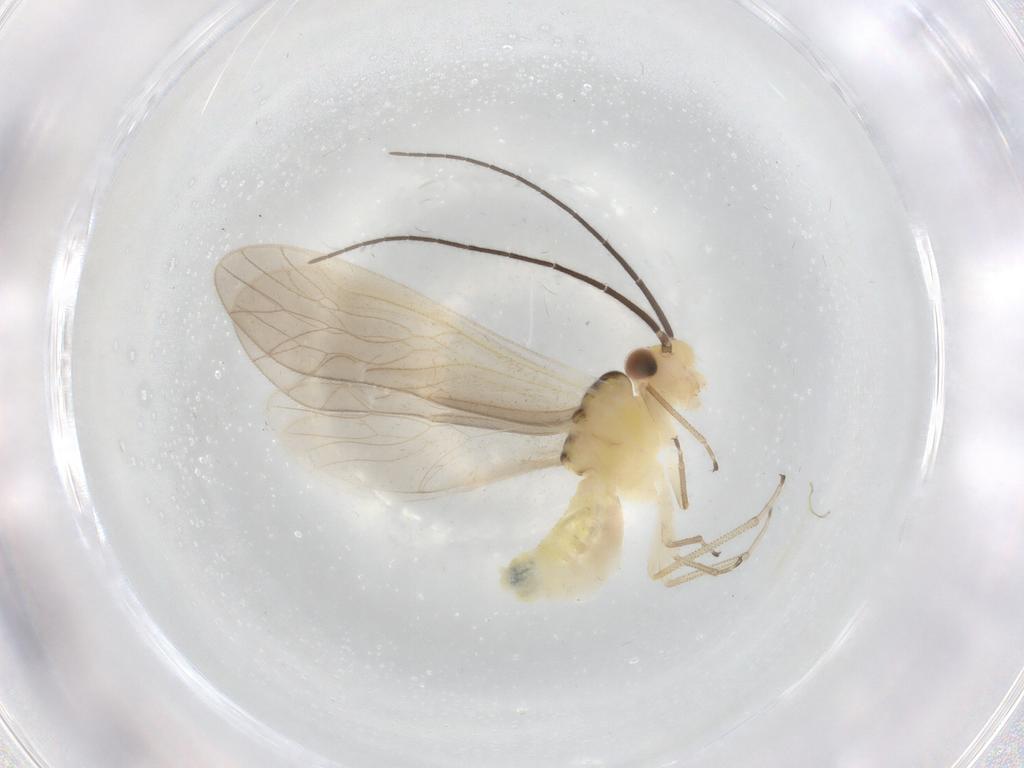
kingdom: Animalia
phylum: Arthropoda
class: Insecta
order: Psocodea
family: Caeciliusidae
